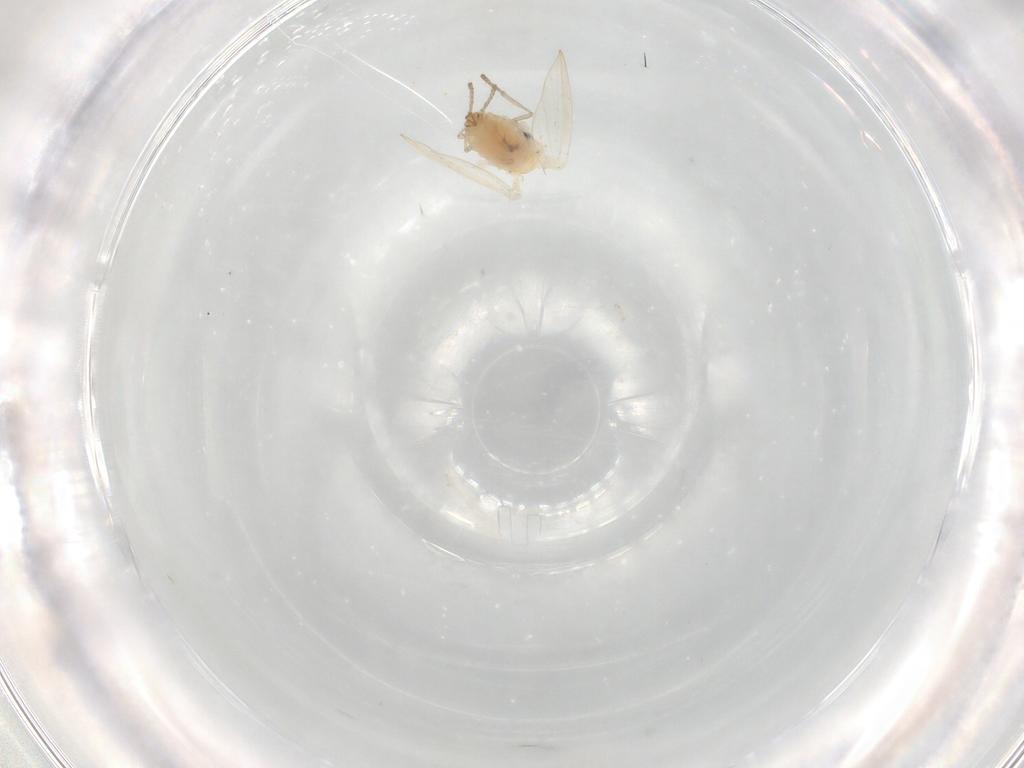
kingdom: Animalia
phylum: Arthropoda
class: Insecta
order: Diptera
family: Psychodidae
